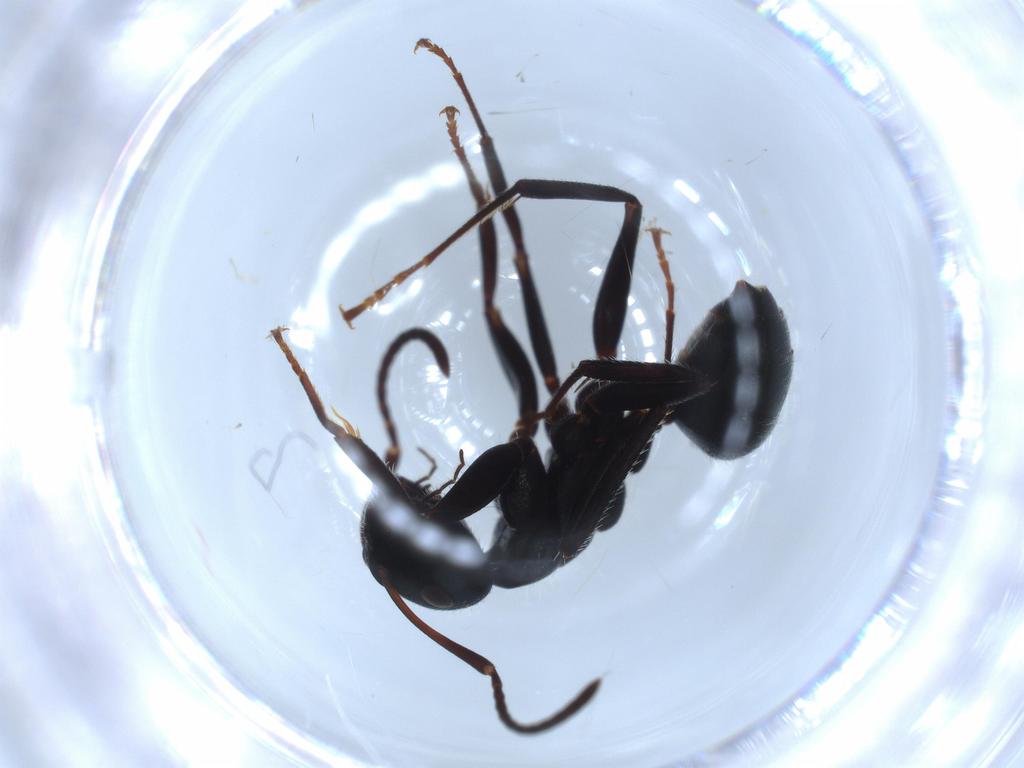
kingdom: Animalia
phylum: Arthropoda
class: Insecta
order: Hymenoptera
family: Formicidae
